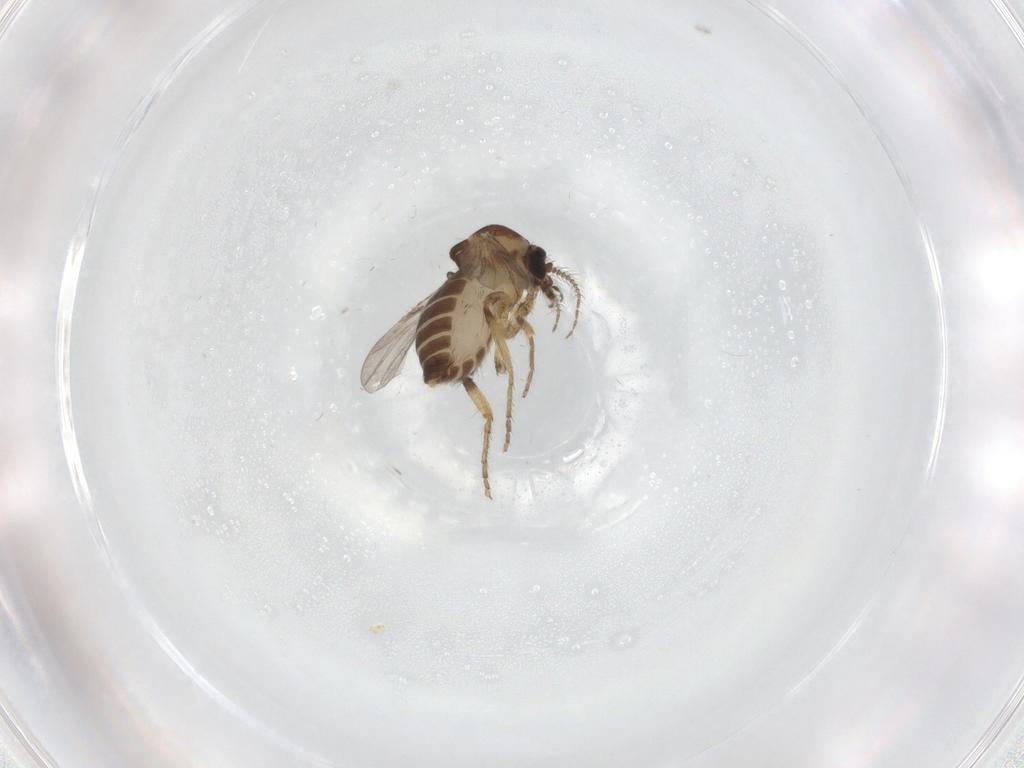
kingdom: Animalia
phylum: Arthropoda
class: Insecta
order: Diptera
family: Ceratopogonidae
